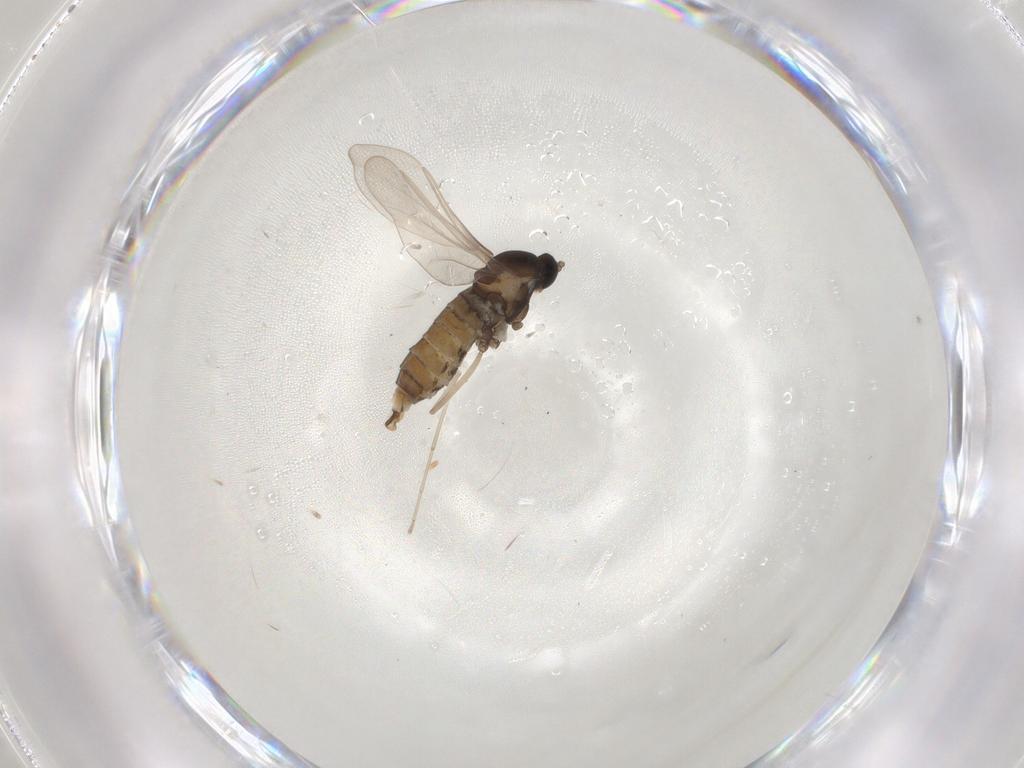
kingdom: Animalia
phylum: Arthropoda
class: Insecta
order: Diptera
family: Cecidomyiidae
